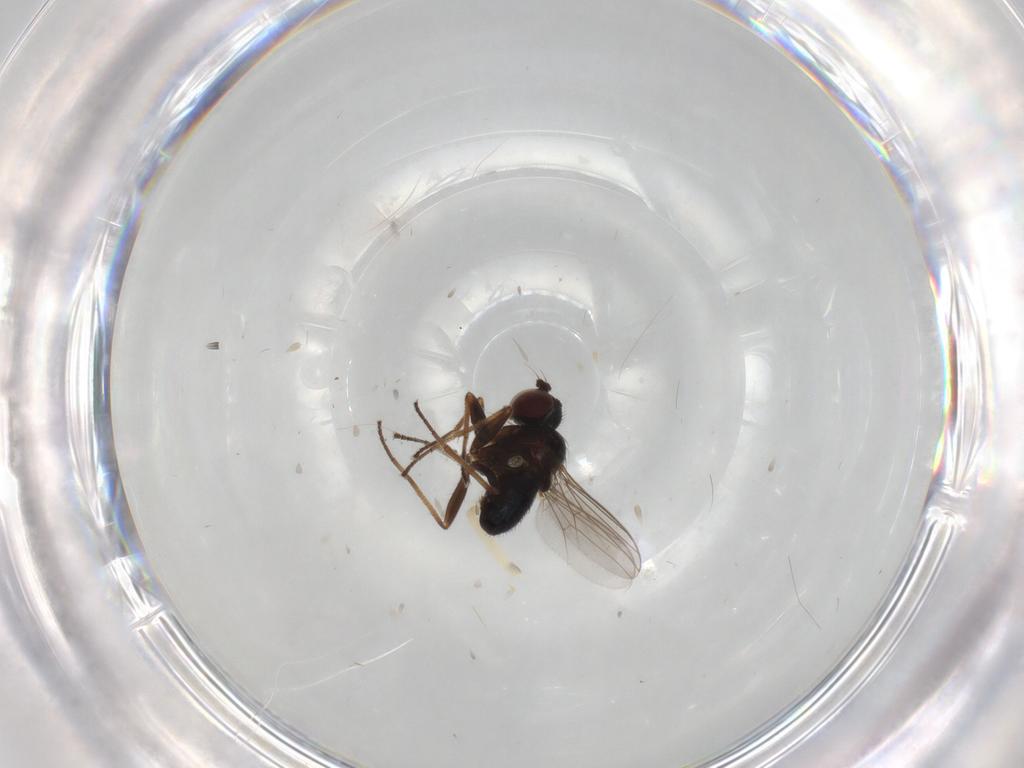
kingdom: Animalia
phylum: Arthropoda
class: Insecta
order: Diptera
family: Dolichopodidae
